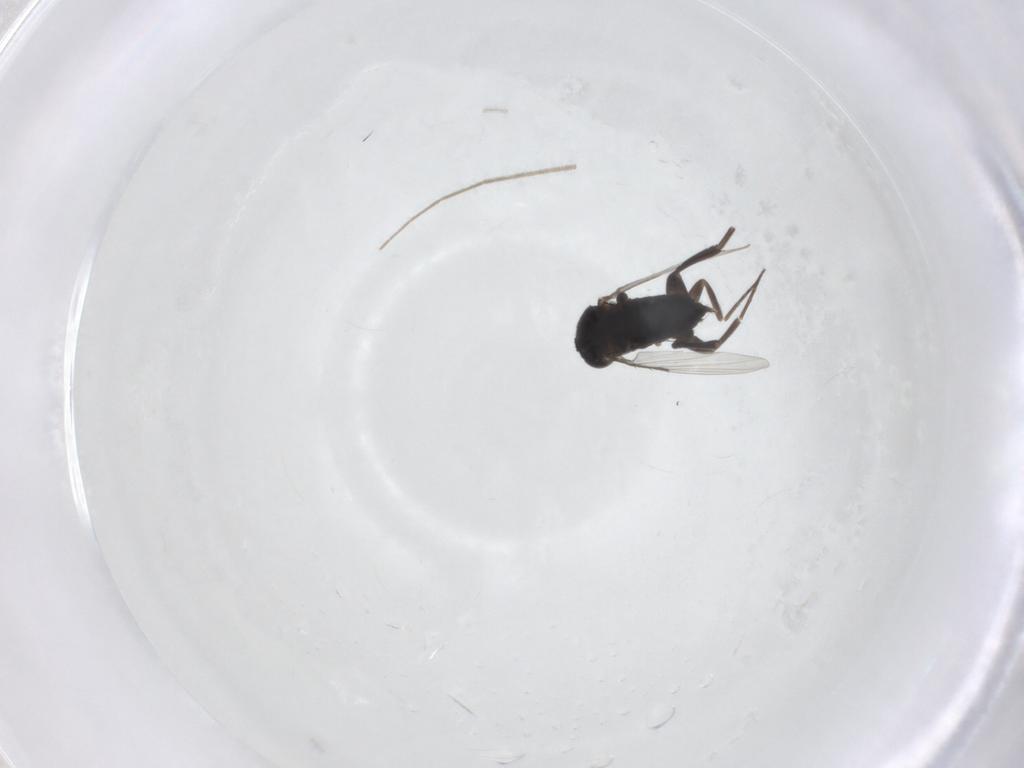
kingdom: Animalia
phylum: Arthropoda
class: Insecta
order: Diptera
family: Phoridae
